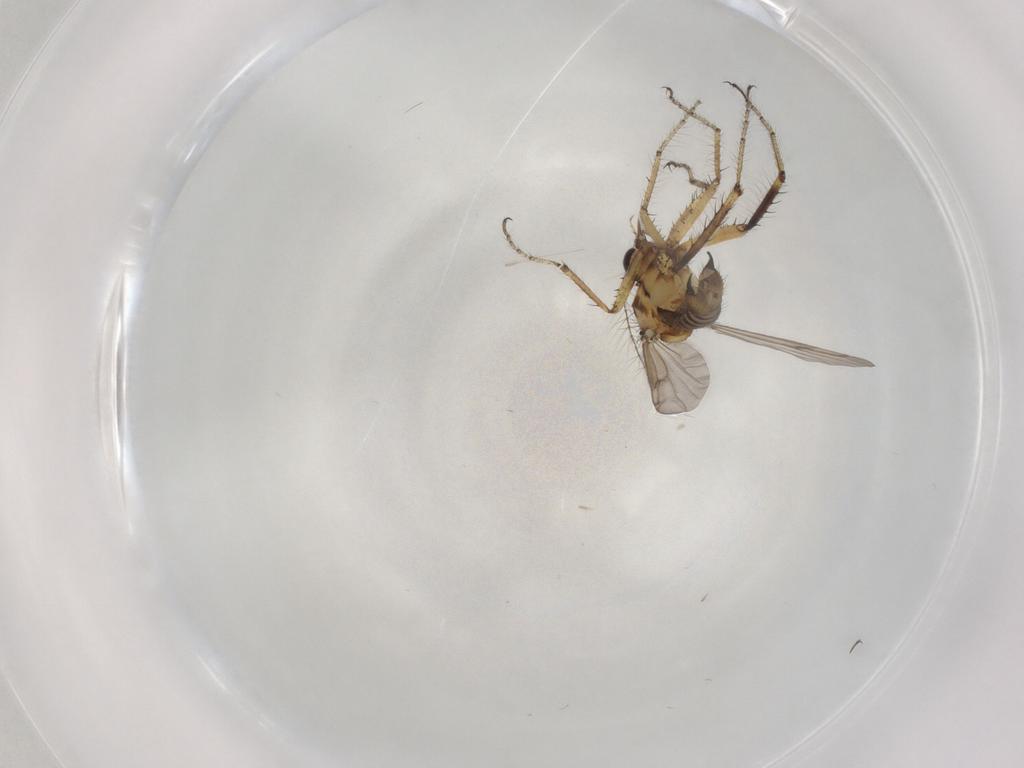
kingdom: Animalia
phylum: Arthropoda
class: Insecta
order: Diptera
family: Ceratopogonidae
